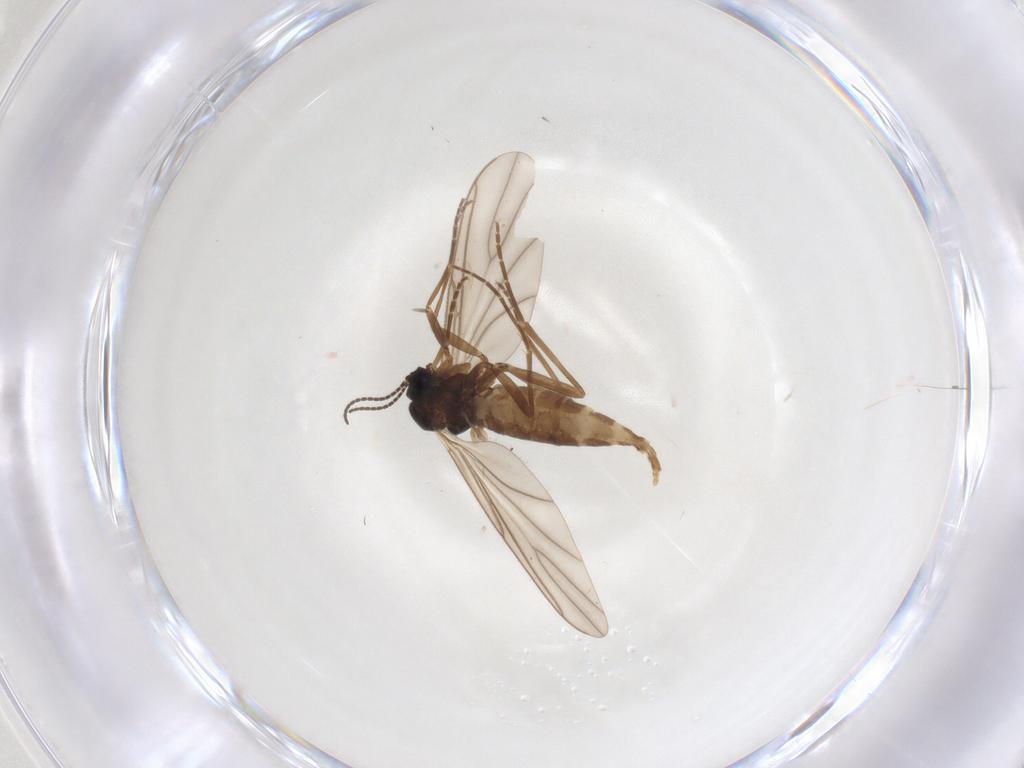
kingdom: Animalia
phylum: Arthropoda
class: Insecta
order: Diptera
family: Sciaridae
